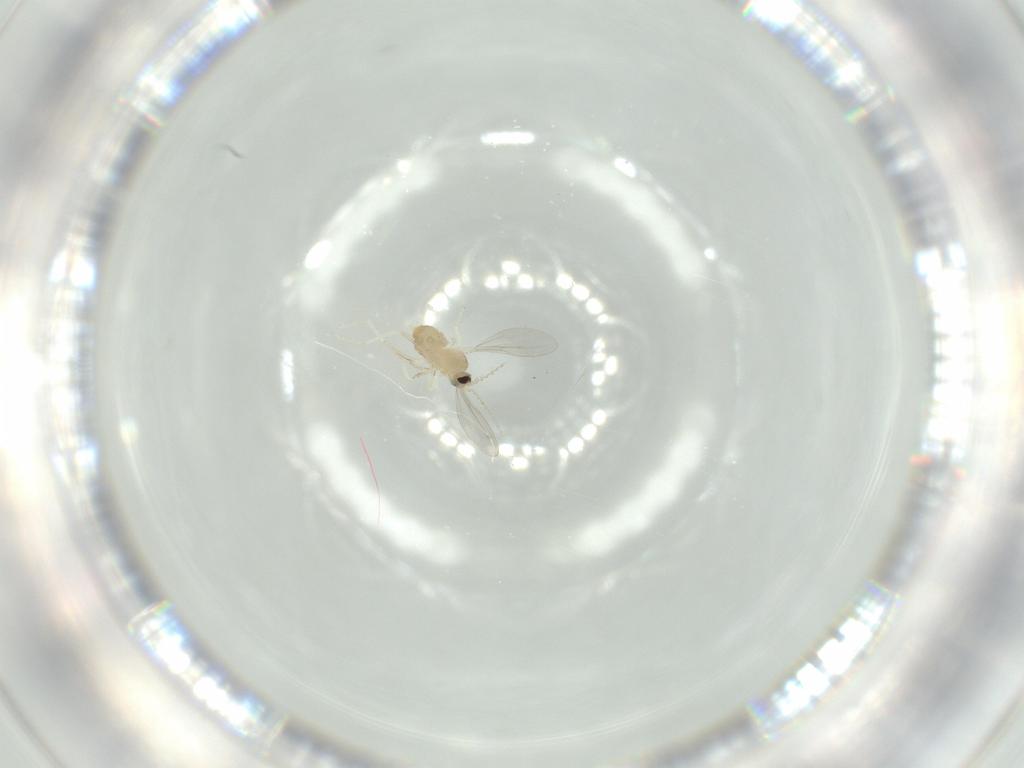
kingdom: Animalia
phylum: Arthropoda
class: Insecta
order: Diptera
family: Cecidomyiidae
